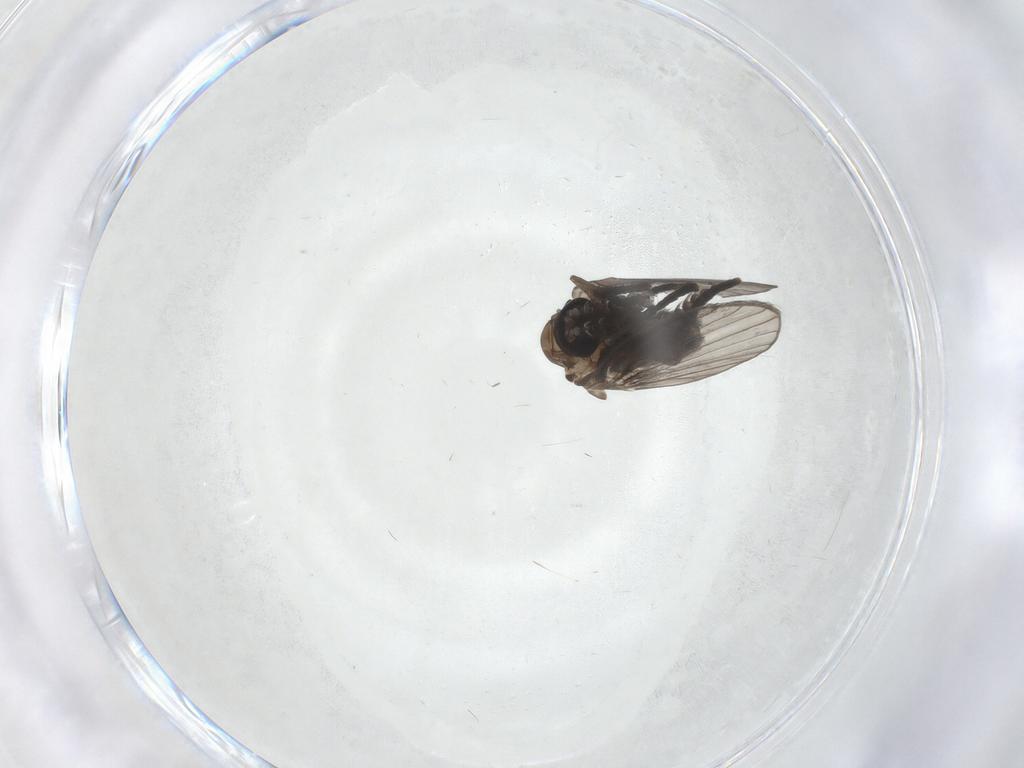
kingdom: Animalia
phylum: Arthropoda
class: Insecta
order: Diptera
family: Psychodidae
